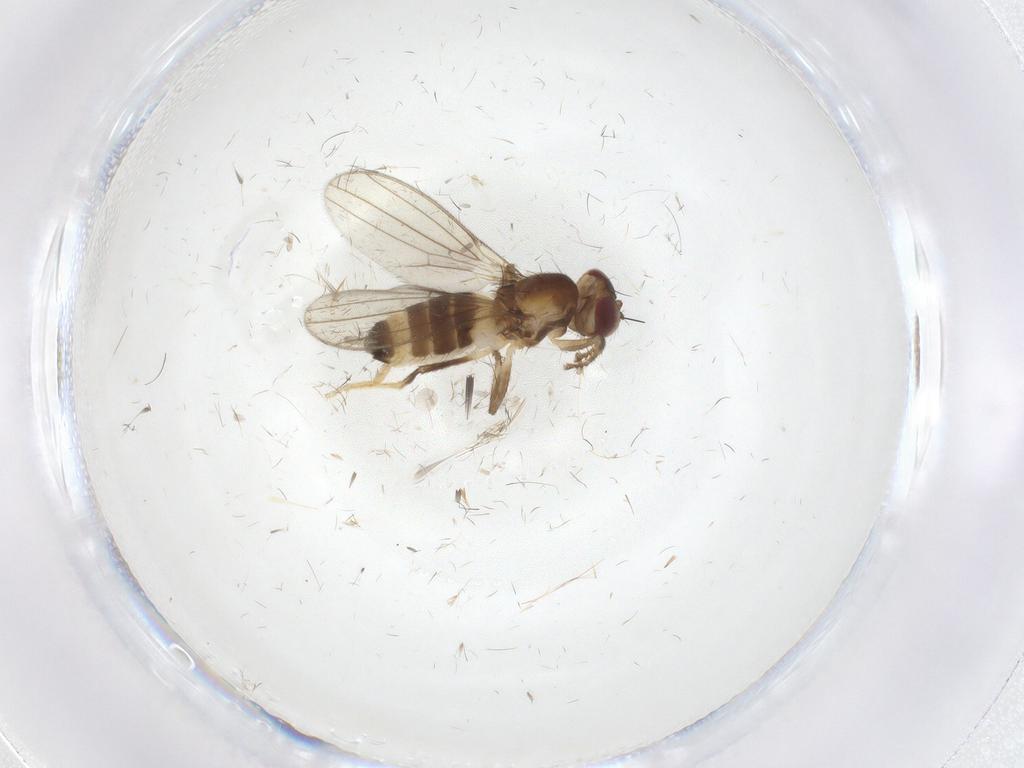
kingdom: Animalia
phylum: Arthropoda
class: Insecta
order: Diptera
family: Periscelididae
